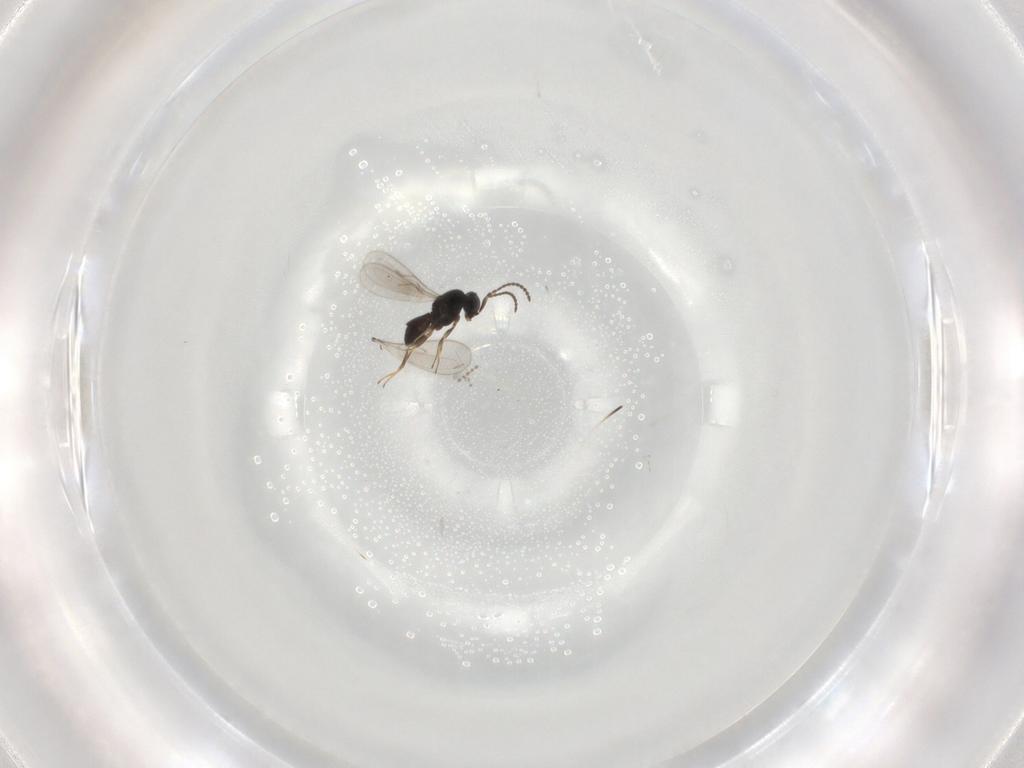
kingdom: Animalia
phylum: Arthropoda
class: Insecta
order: Hymenoptera
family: Scelionidae
